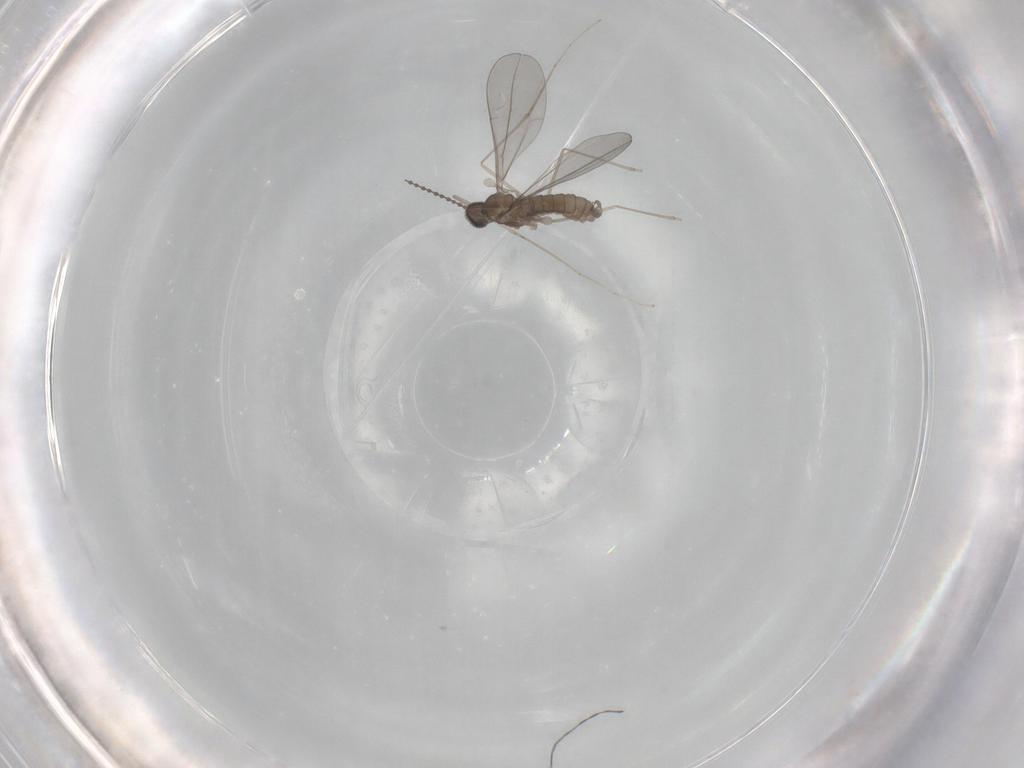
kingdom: Animalia
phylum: Arthropoda
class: Insecta
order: Diptera
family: Cecidomyiidae
